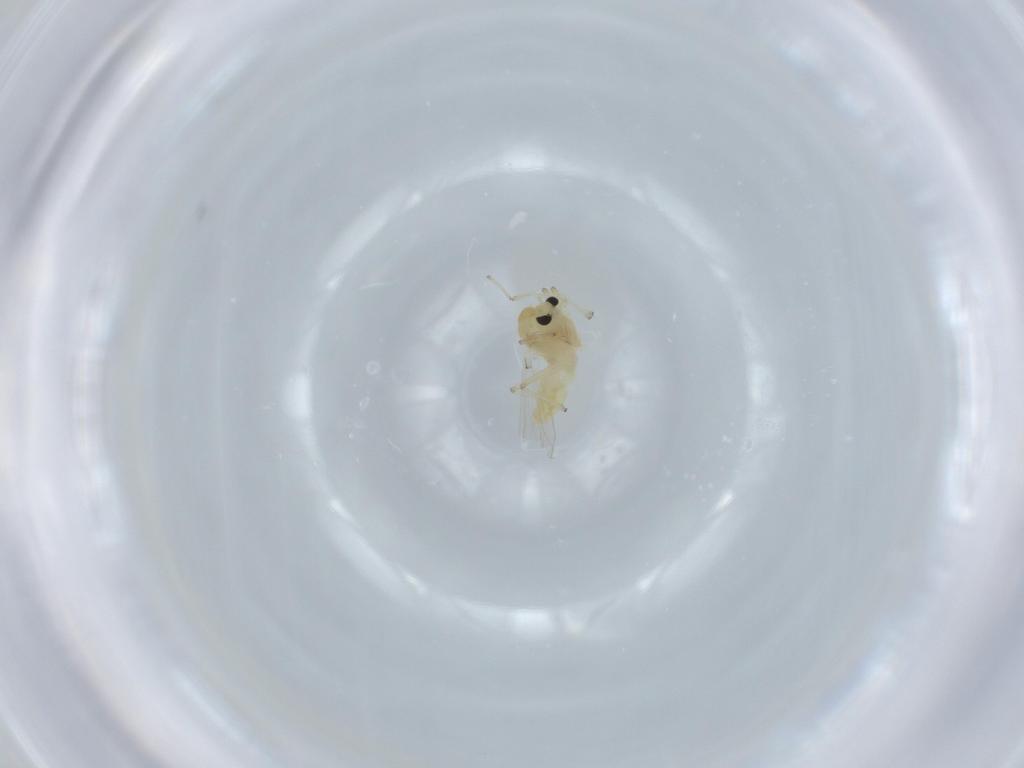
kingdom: Animalia
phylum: Arthropoda
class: Insecta
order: Diptera
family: Chironomidae
